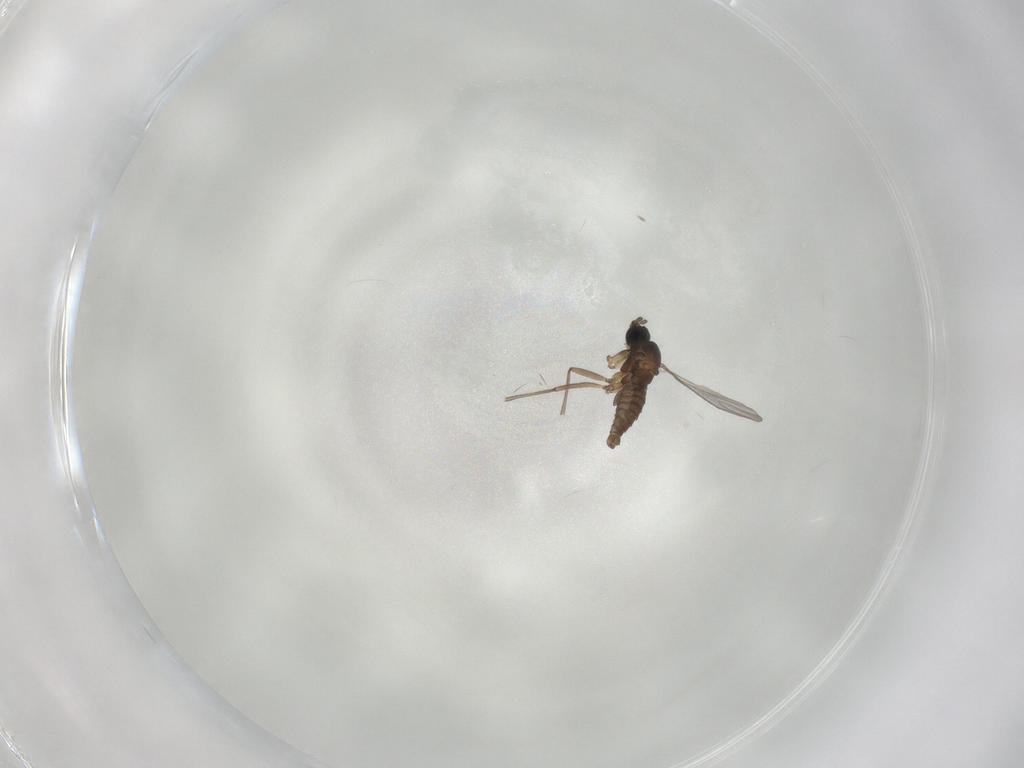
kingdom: Animalia
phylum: Arthropoda
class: Insecta
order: Diptera
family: Sciaridae
